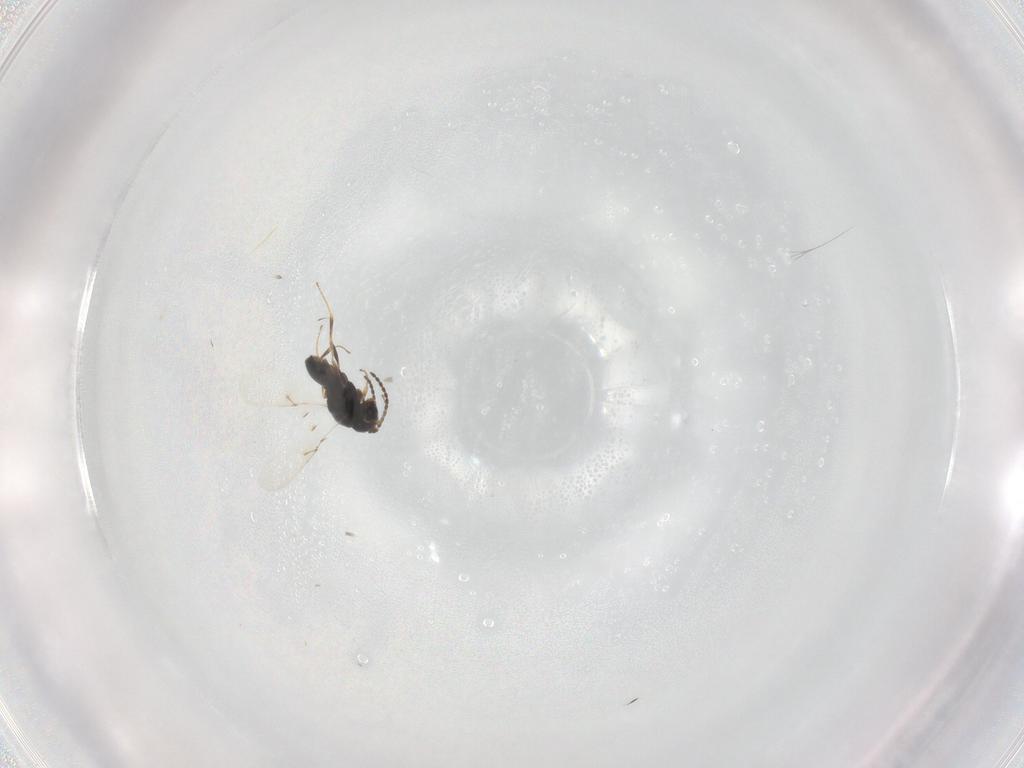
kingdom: Animalia
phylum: Arthropoda
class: Insecta
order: Hymenoptera
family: Scelionidae
